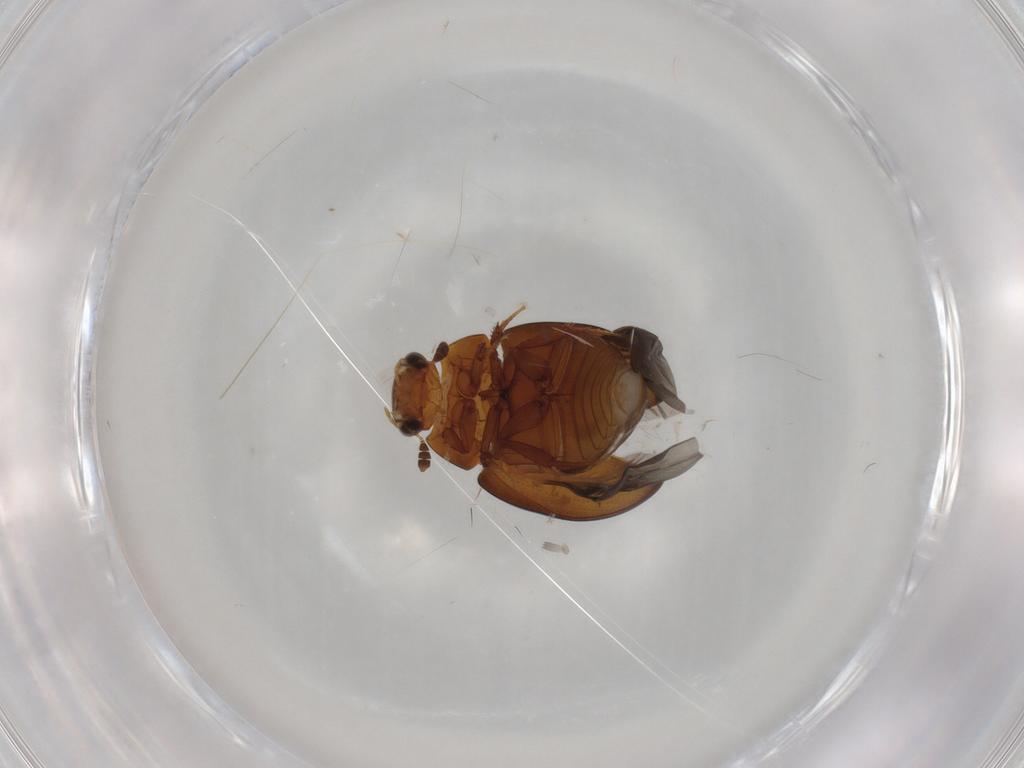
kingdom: Animalia
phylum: Arthropoda
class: Insecta
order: Coleoptera
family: Hydrophilidae
